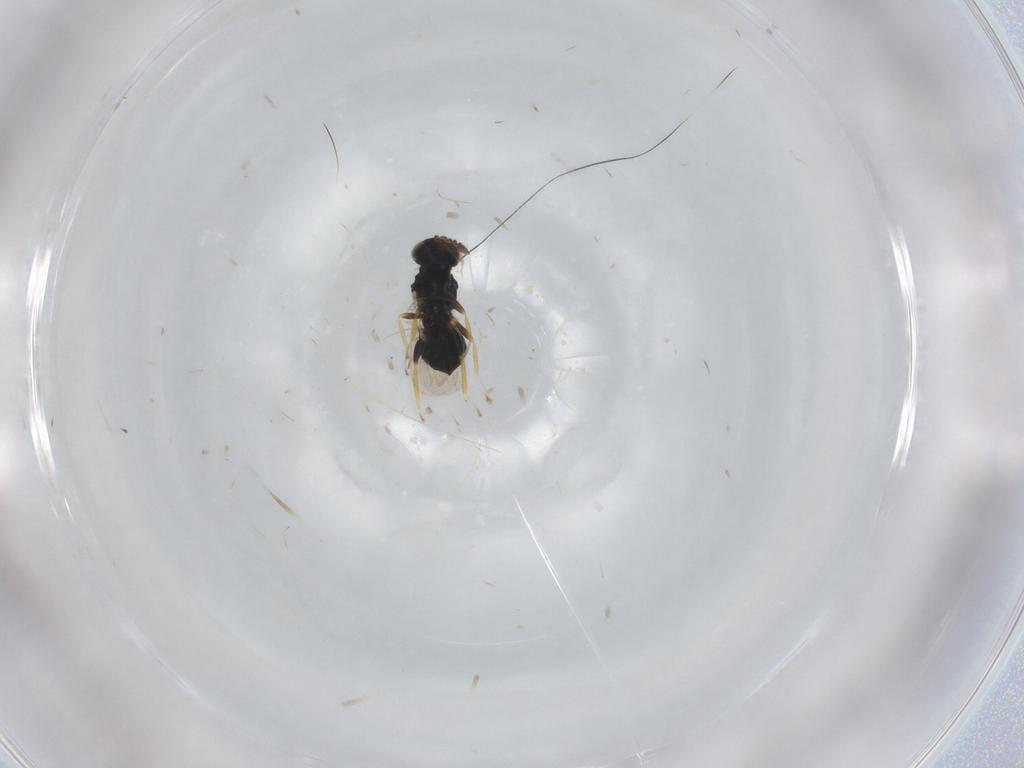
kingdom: Animalia
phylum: Arthropoda
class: Insecta
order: Hymenoptera
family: Eulophidae
